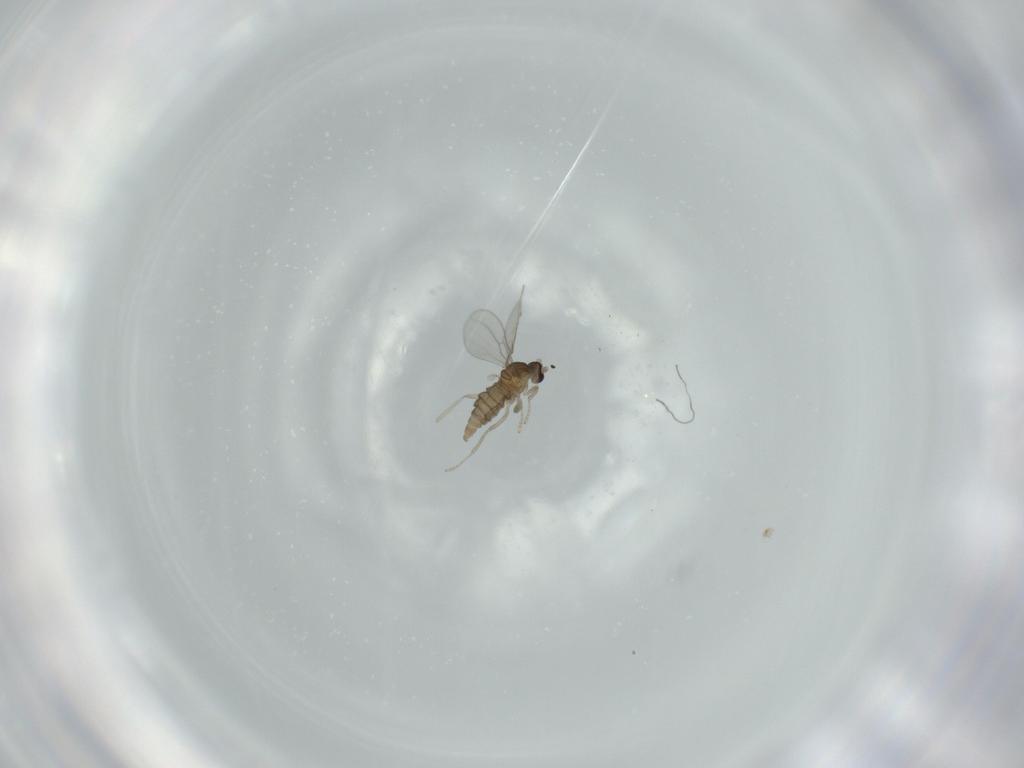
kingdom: Animalia
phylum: Arthropoda
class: Insecta
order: Diptera
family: Cecidomyiidae
